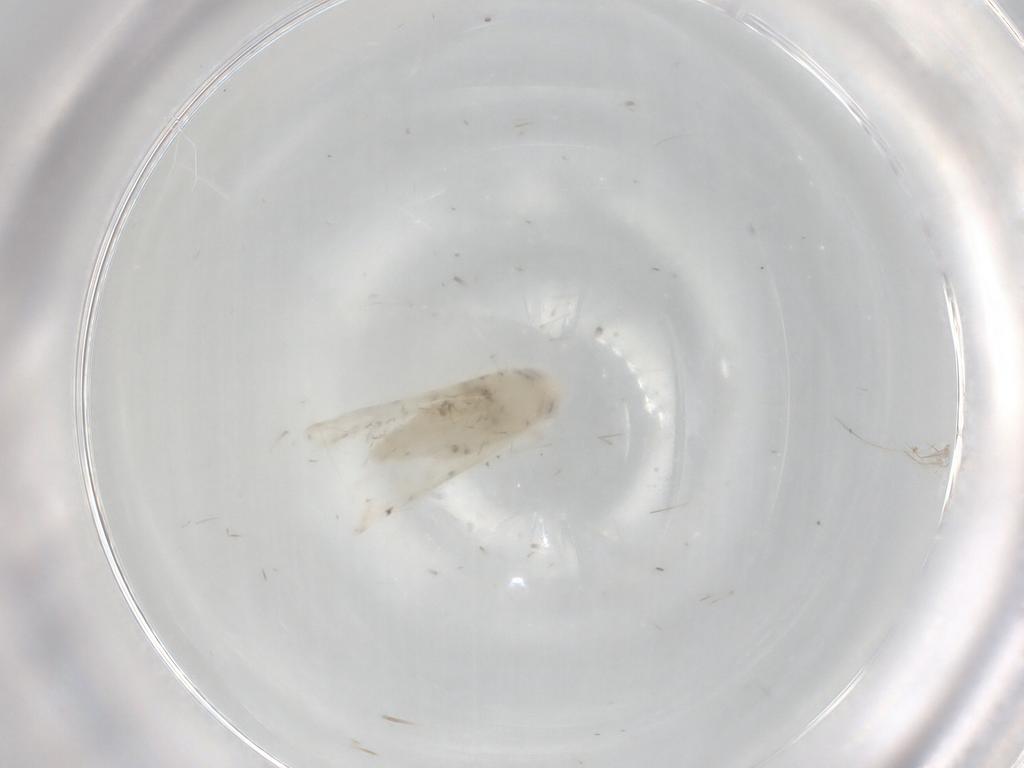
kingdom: Animalia
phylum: Arthropoda
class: Insecta
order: Hemiptera
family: Cicadellidae
